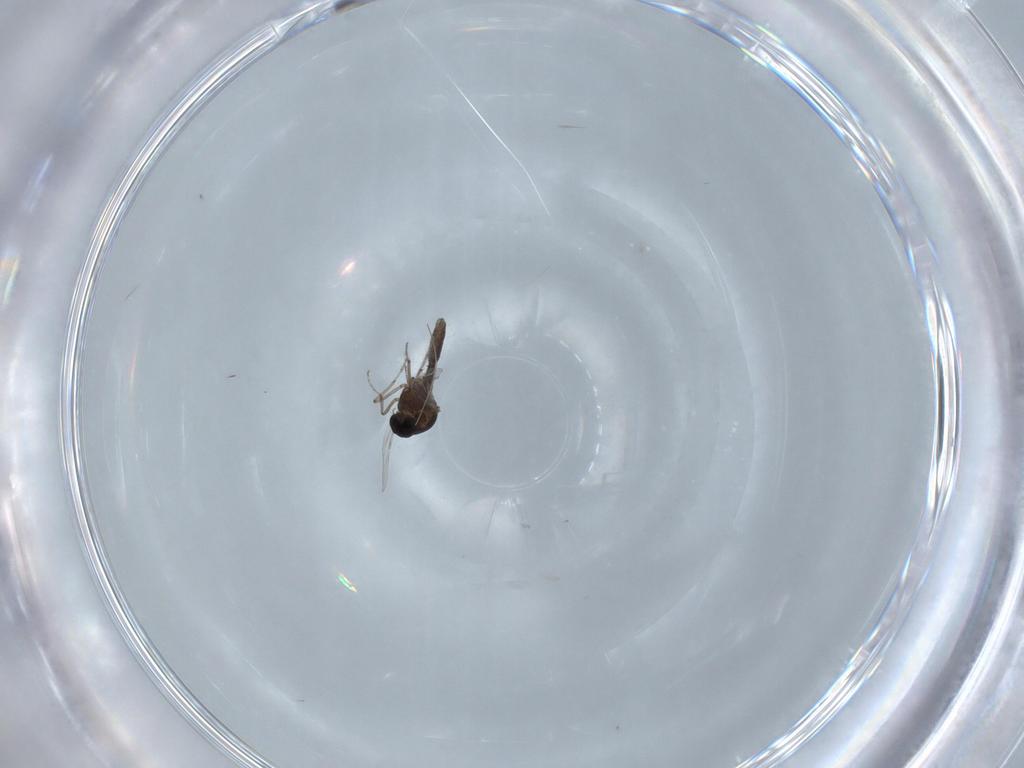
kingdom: Animalia
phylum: Arthropoda
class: Insecta
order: Diptera
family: Ceratopogonidae
